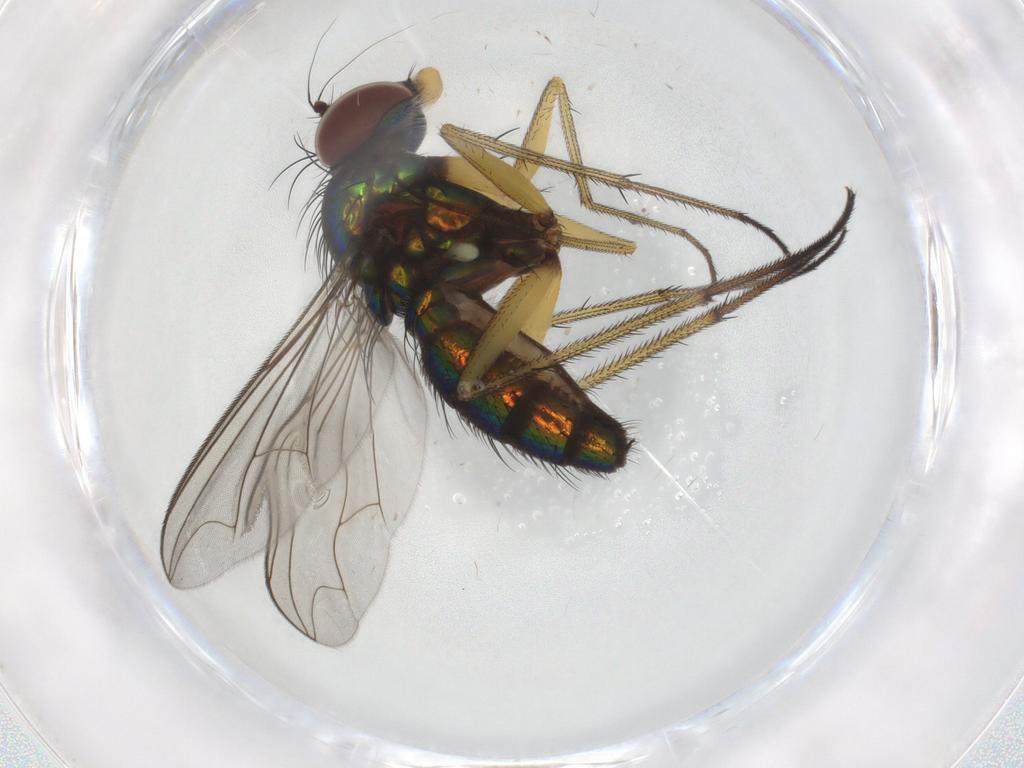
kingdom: Animalia
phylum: Arthropoda
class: Insecta
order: Diptera
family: Dolichopodidae
